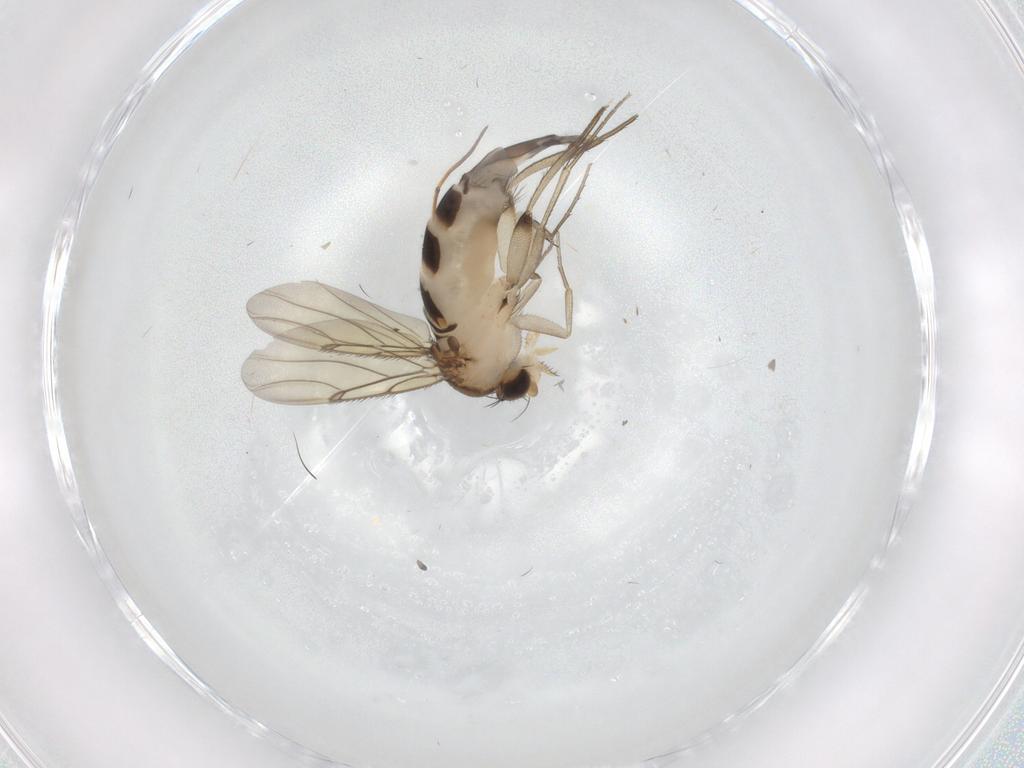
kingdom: Animalia
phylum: Arthropoda
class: Insecta
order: Diptera
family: Phoridae
